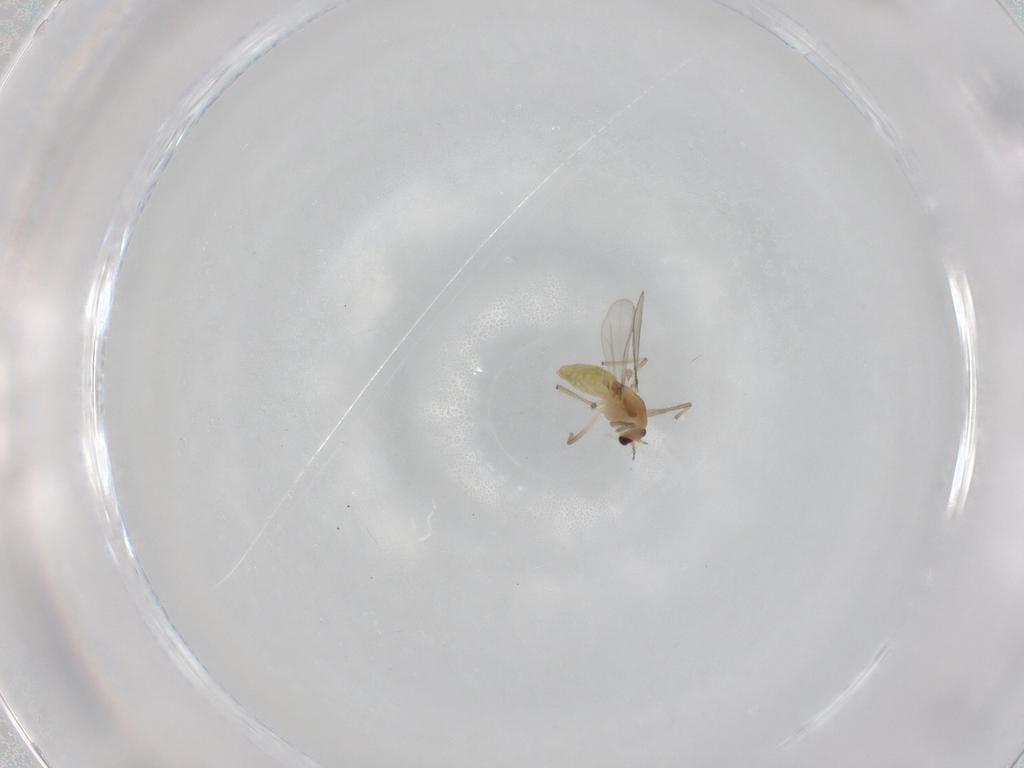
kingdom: Animalia
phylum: Arthropoda
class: Insecta
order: Diptera
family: Chironomidae
